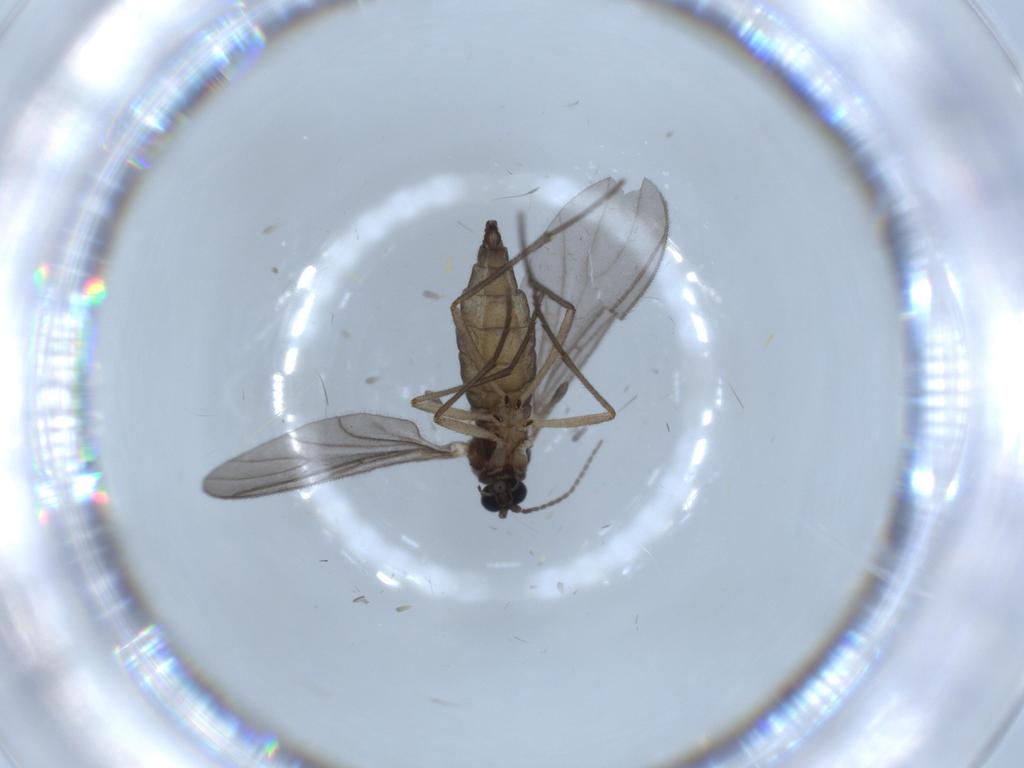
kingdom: Animalia
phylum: Arthropoda
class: Insecta
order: Diptera
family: Sciaridae
